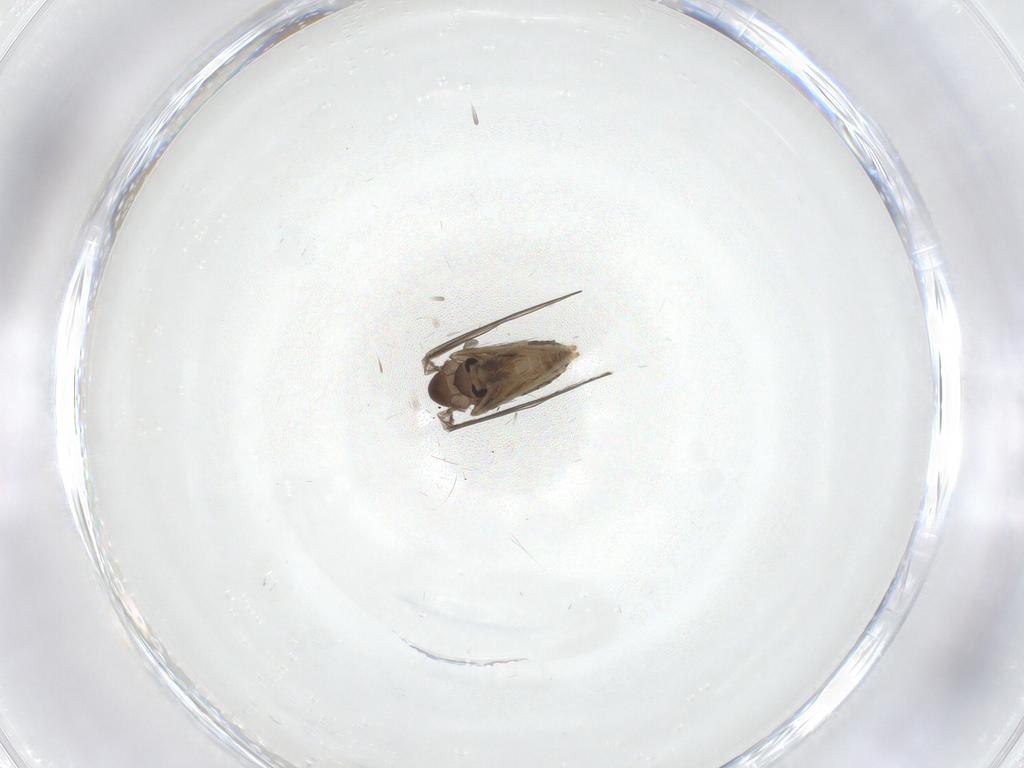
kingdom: Animalia
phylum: Arthropoda
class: Insecta
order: Diptera
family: Psychodidae
